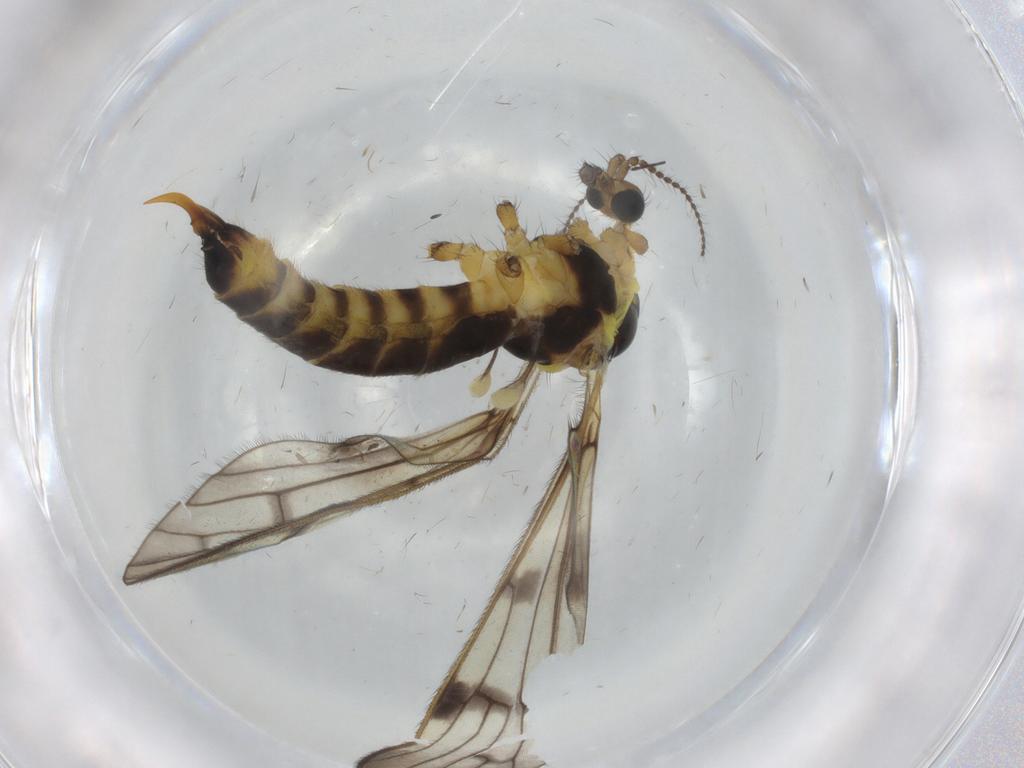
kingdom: Animalia
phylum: Arthropoda
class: Insecta
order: Diptera
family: Limoniidae
